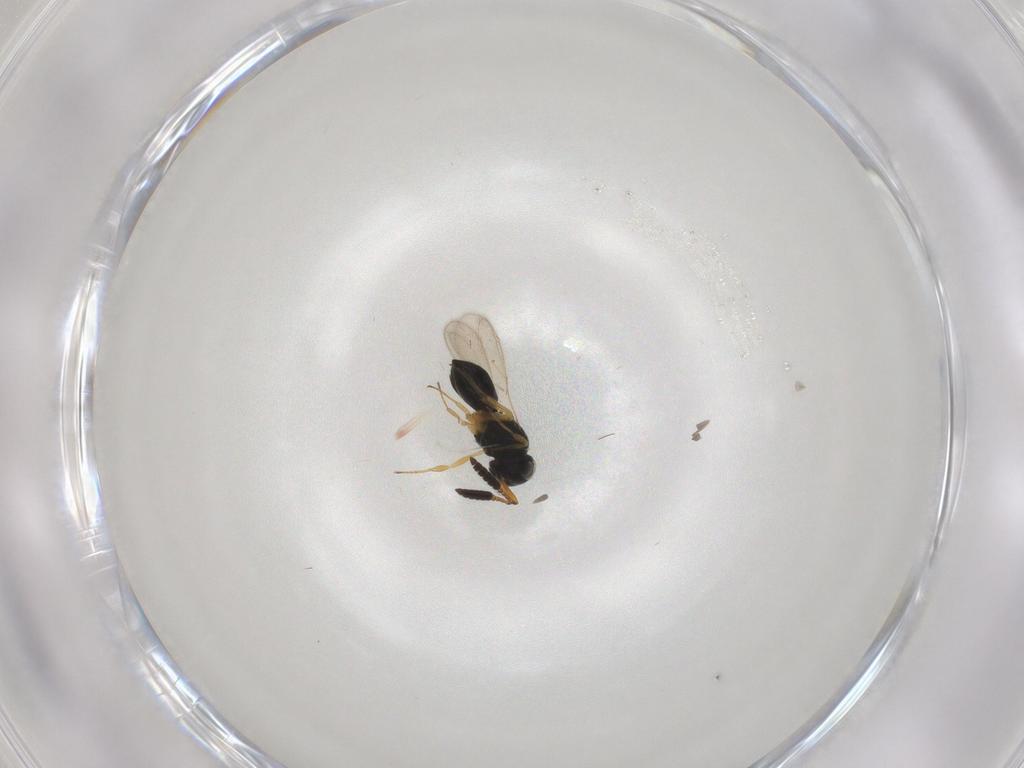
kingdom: Animalia
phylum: Arthropoda
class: Insecta
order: Hymenoptera
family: Scelionidae
